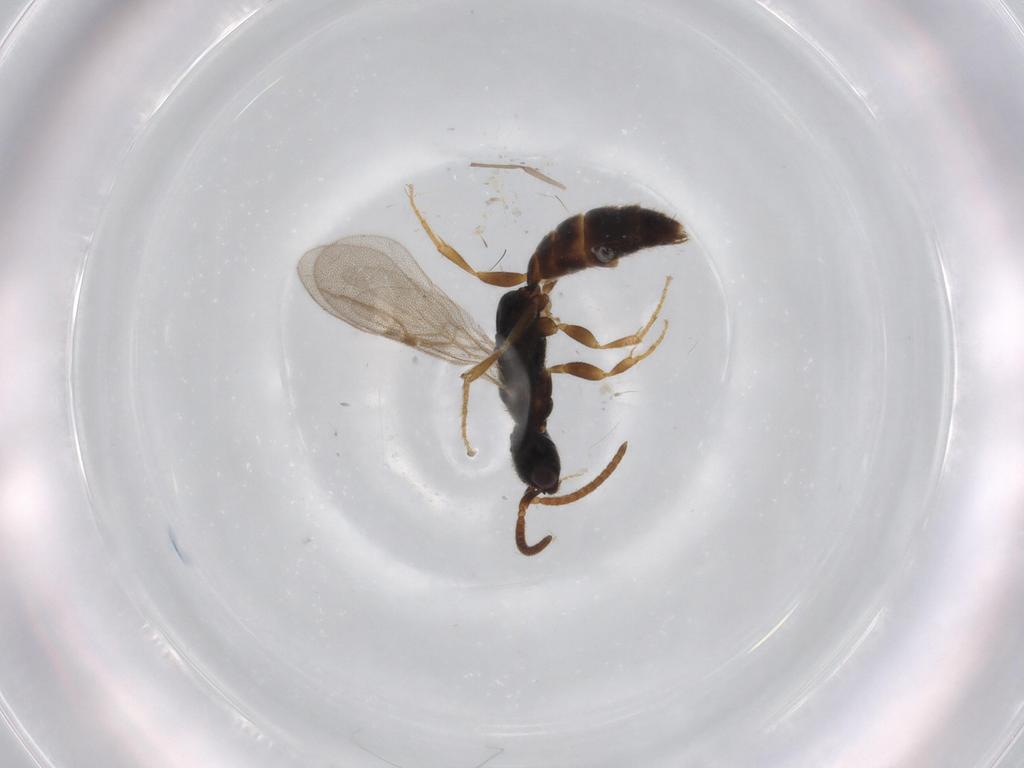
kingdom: Animalia
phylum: Arthropoda
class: Insecta
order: Hymenoptera
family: Bethylidae
